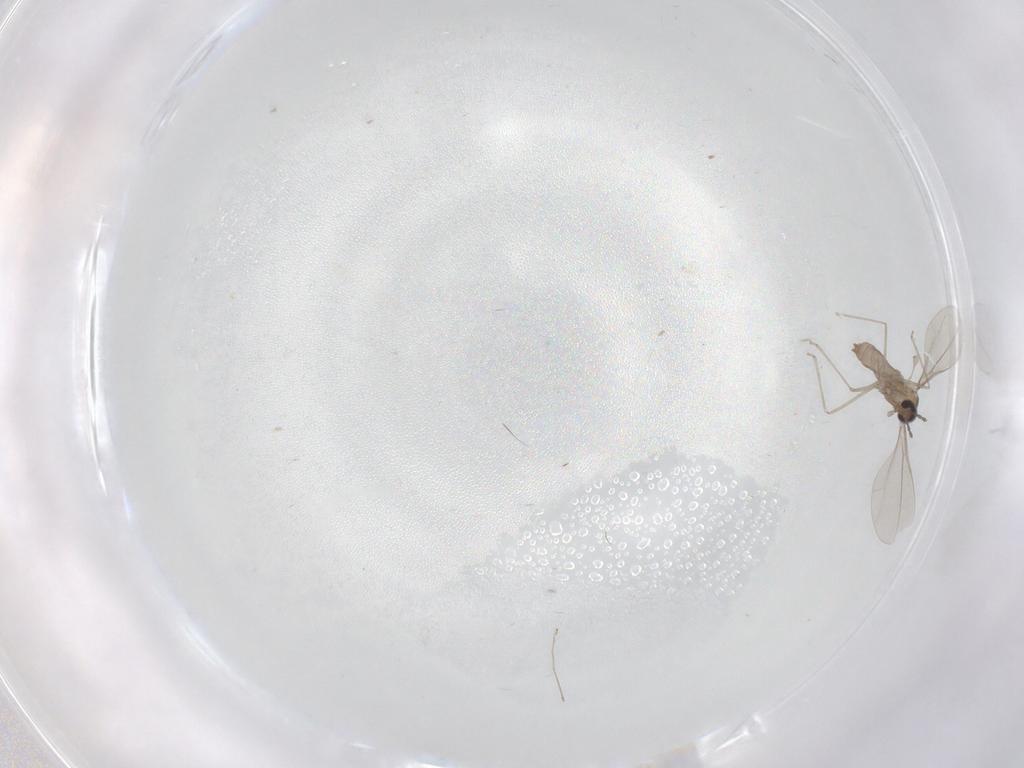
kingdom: Animalia
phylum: Arthropoda
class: Insecta
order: Diptera
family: Cecidomyiidae
